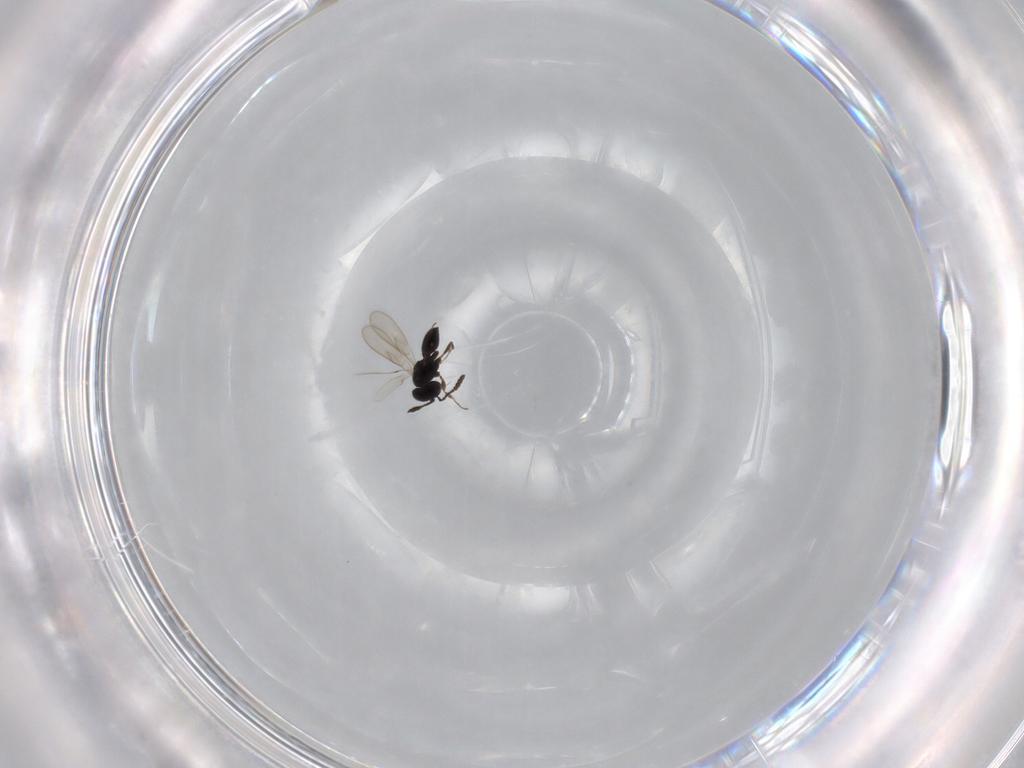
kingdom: Animalia
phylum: Arthropoda
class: Insecta
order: Hymenoptera
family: Scelionidae
